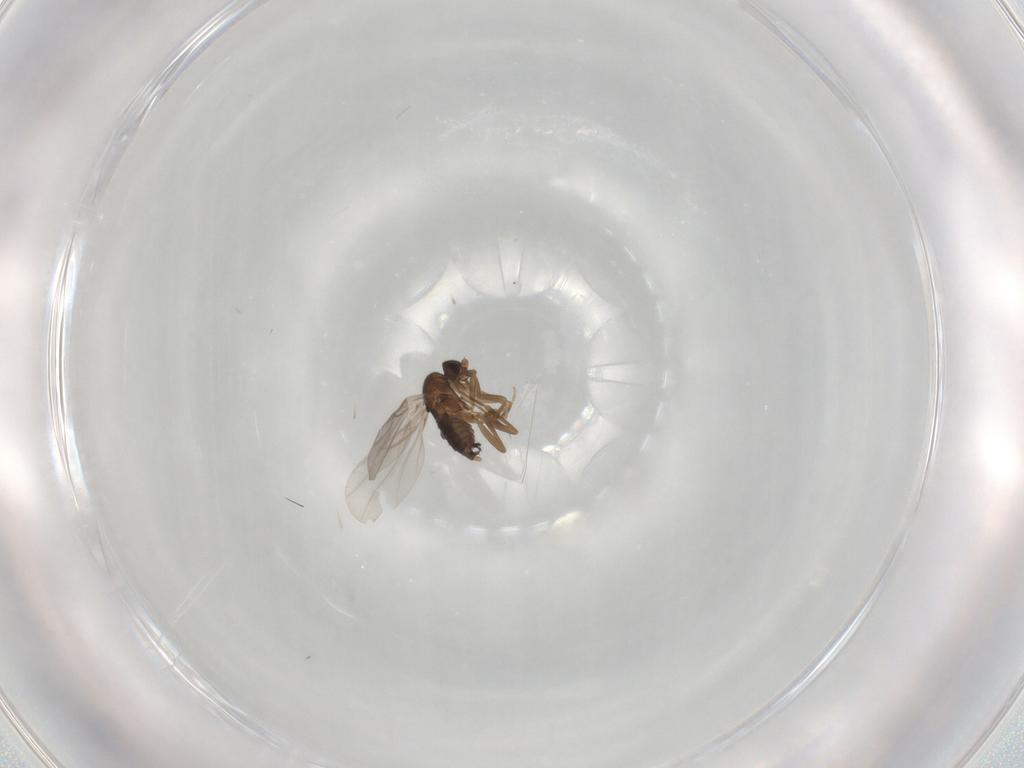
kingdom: Animalia
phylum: Arthropoda
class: Insecta
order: Diptera
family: Phoridae
